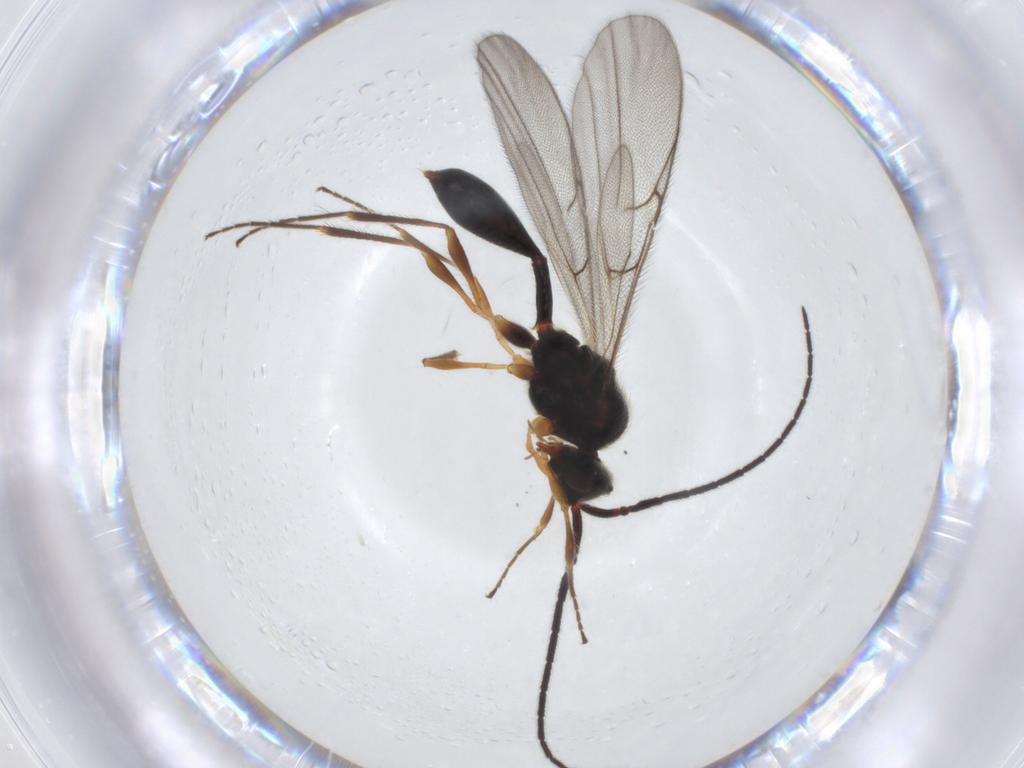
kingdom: Animalia
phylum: Arthropoda
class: Insecta
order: Hymenoptera
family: Diapriidae
